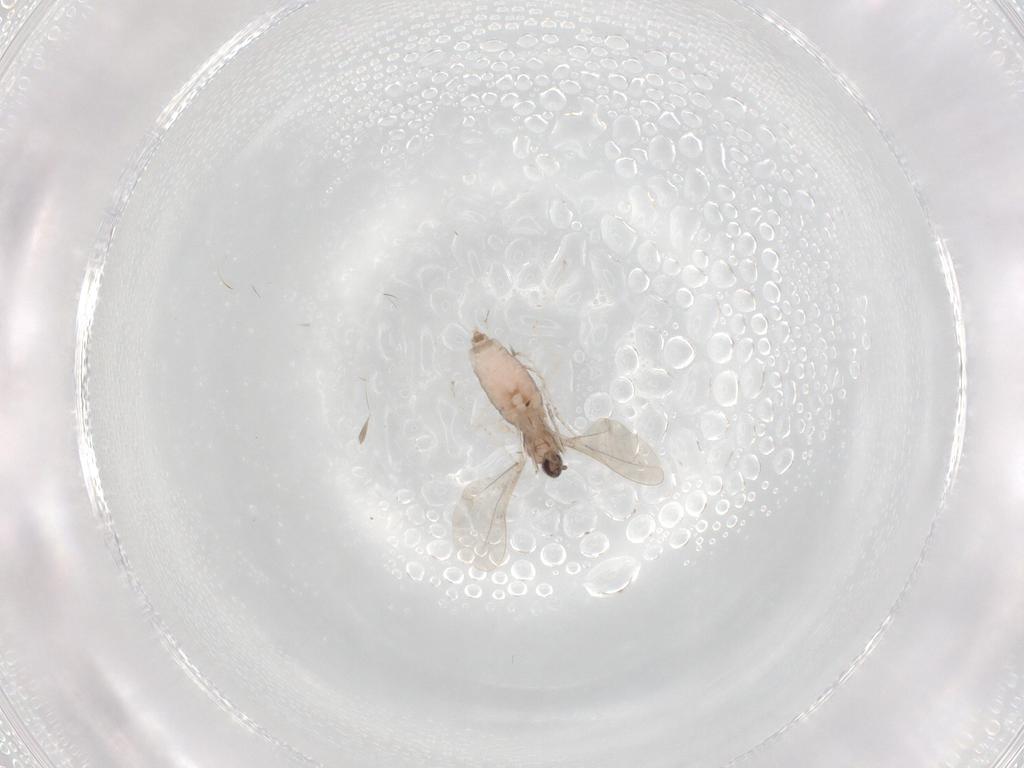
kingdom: Animalia
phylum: Arthropoda
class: Insecta
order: Diptera
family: Cecidomyiidae
